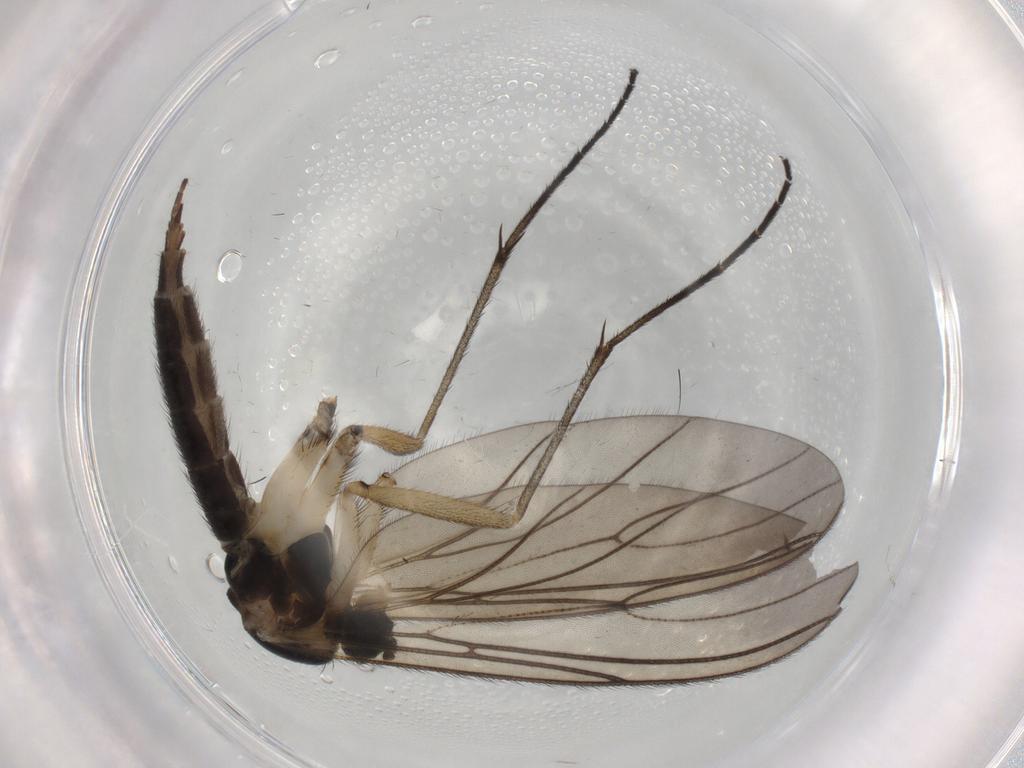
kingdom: Animalia
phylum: Arthropoda
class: Insecta
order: Diptera
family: Sciaridae
